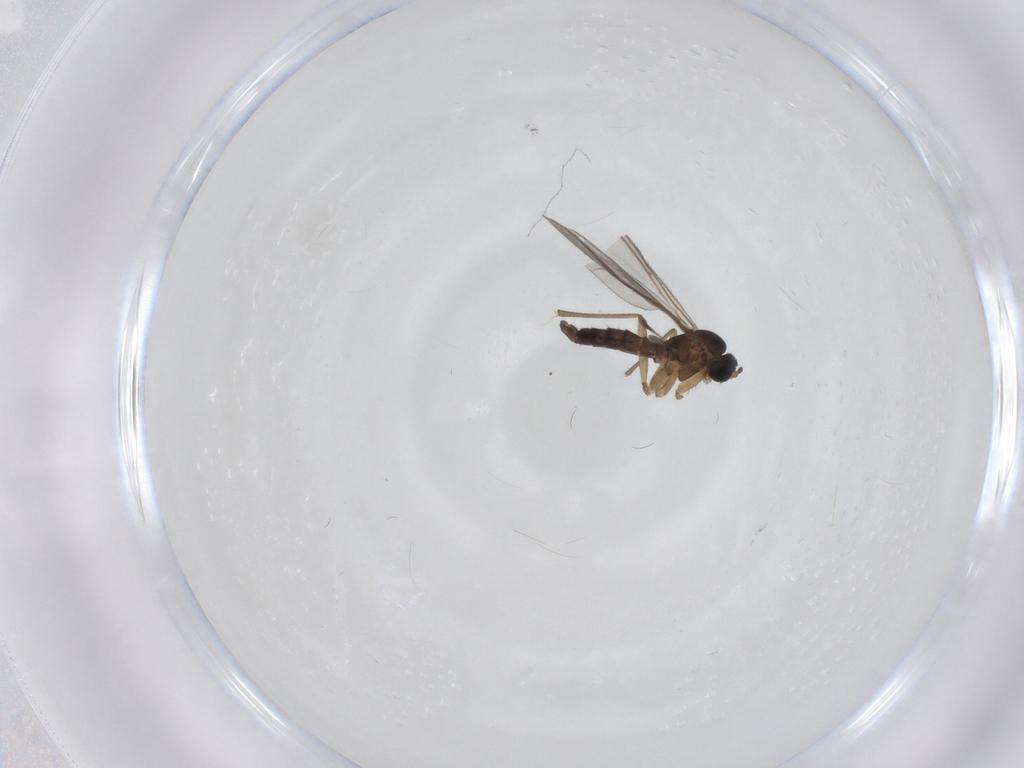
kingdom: Animalia
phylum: Arthropoda
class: Insecta
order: Diptera
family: Sciaridae
